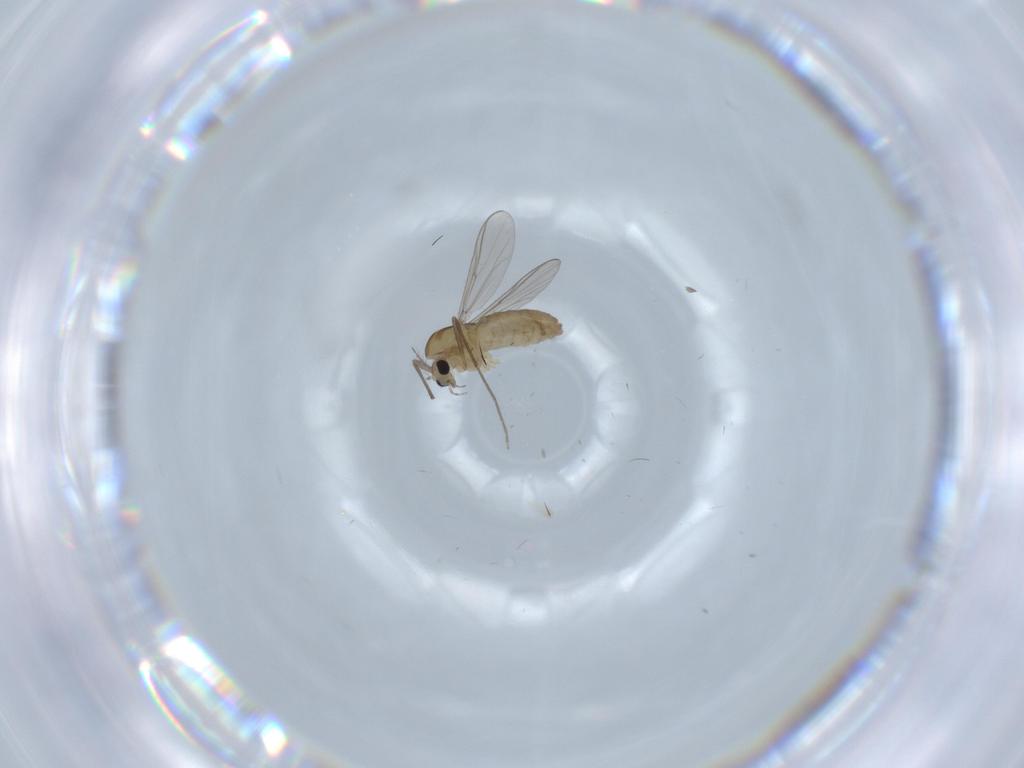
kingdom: Animalia
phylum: Arthropoda
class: Insecta
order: Diptera
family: Chironomidae
